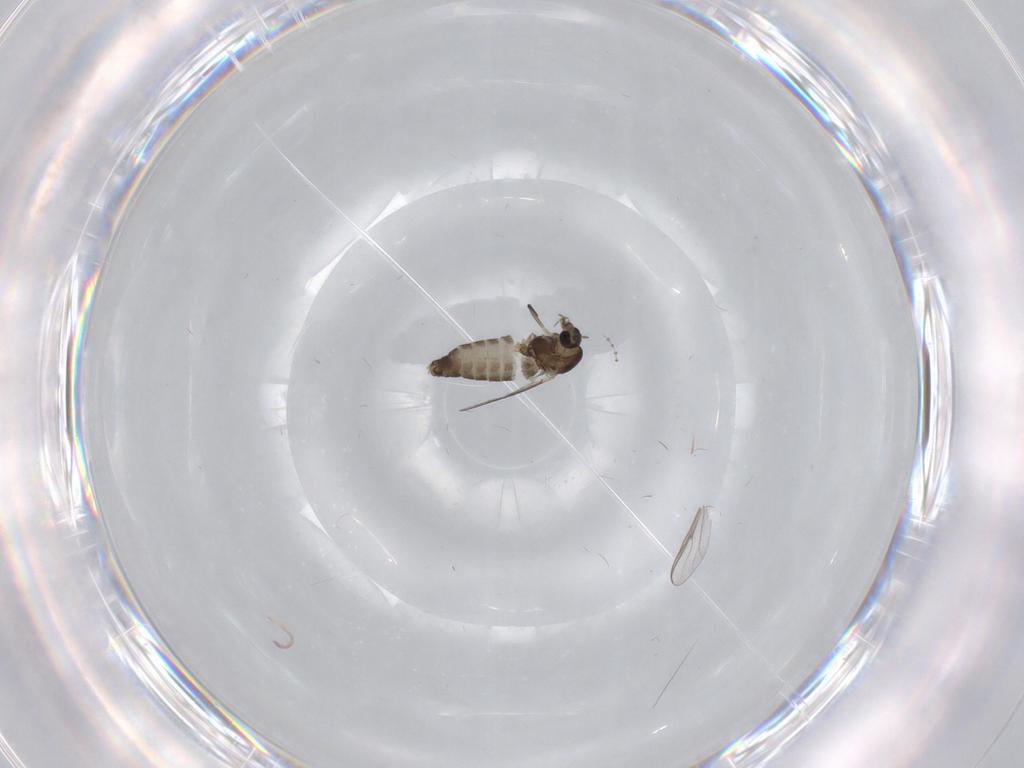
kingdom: Animalia
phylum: Arthropoda
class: Insecta
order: Diptera
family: Chironomidae
